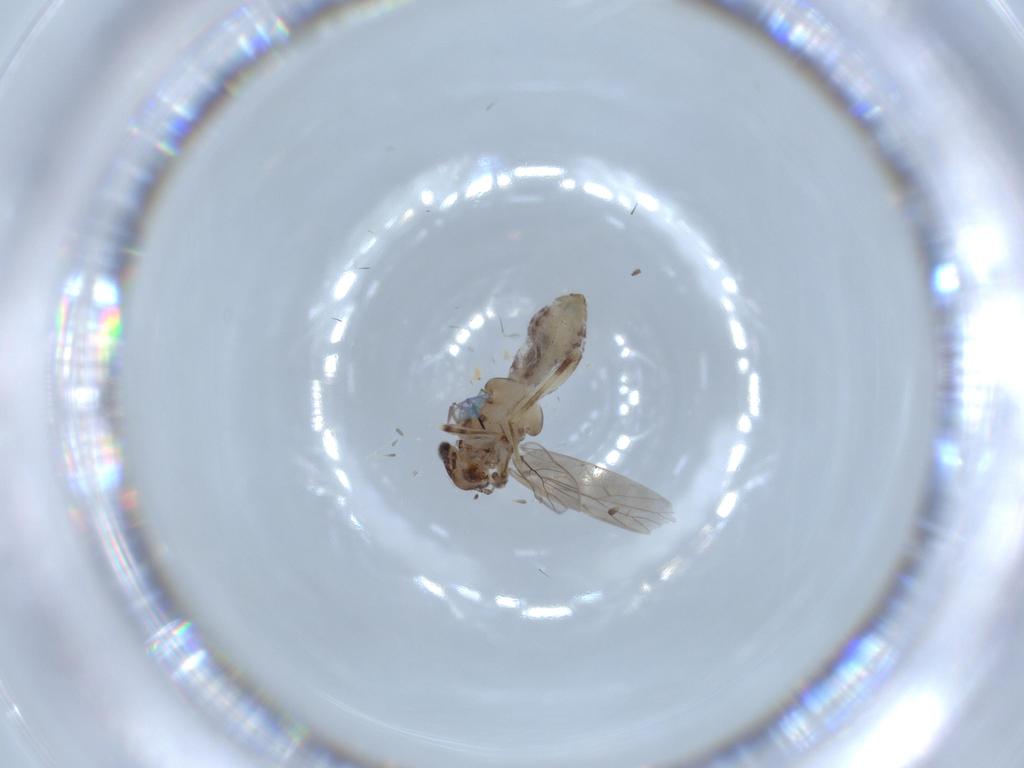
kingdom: Animalia
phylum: Arthropoda
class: Insecta
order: Psocodea
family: Lepidopsocidae
